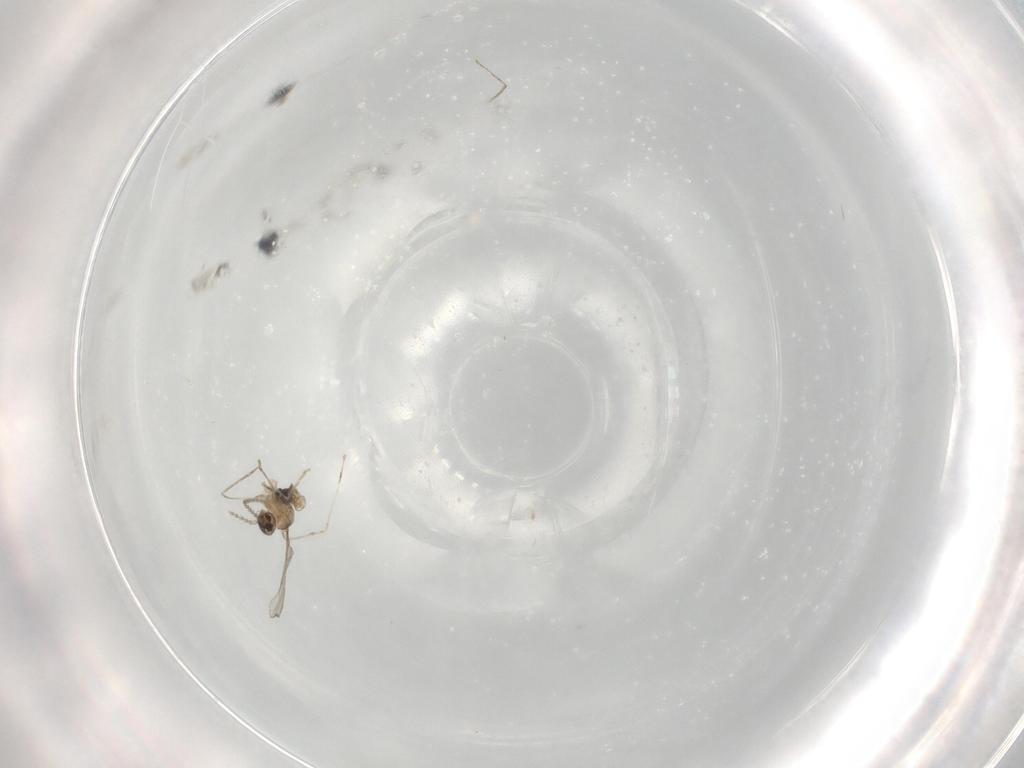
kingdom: Animalia
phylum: Arthropoda
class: Insecta
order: Diptera
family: Cecidomyiidae
